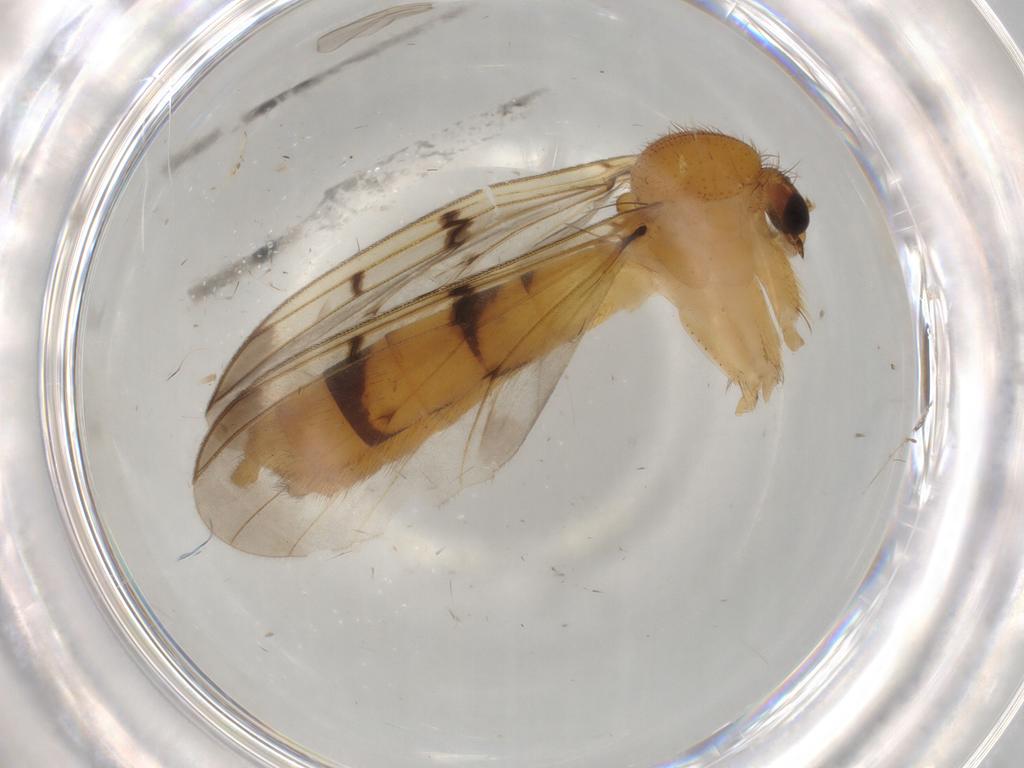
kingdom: Animalia
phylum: Arthropoda
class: Insecta
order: Diptera
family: Mycetophilidae
